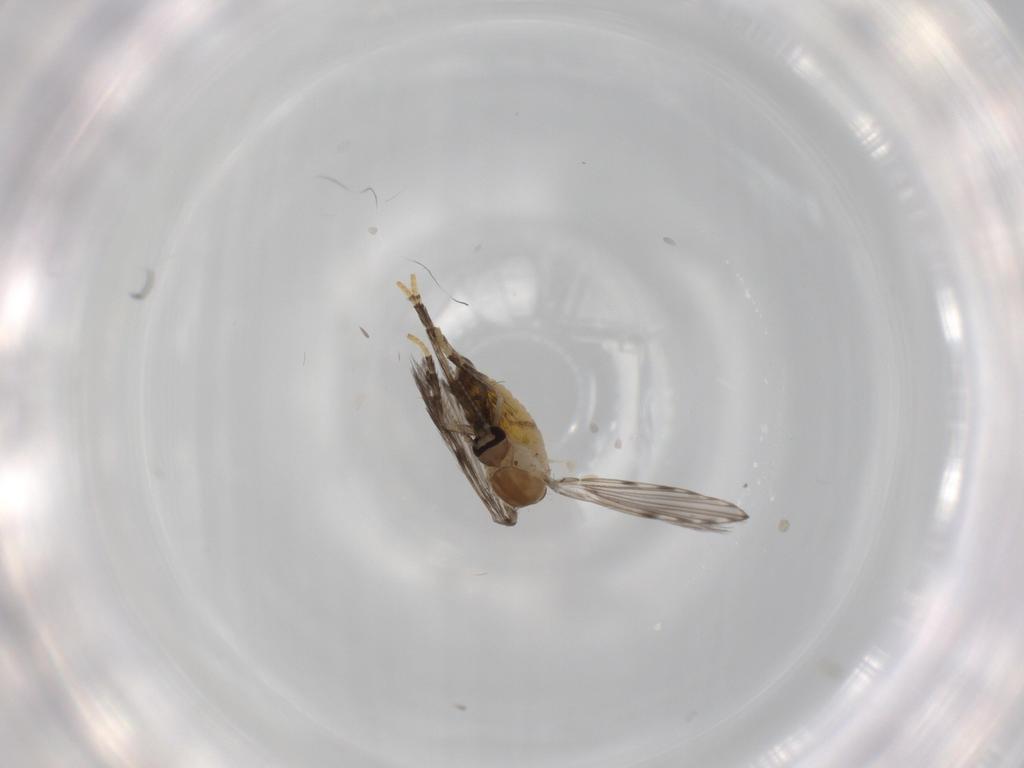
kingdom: Animalia
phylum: Arthropoda
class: Insecta
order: Diptera
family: Psychodidae
